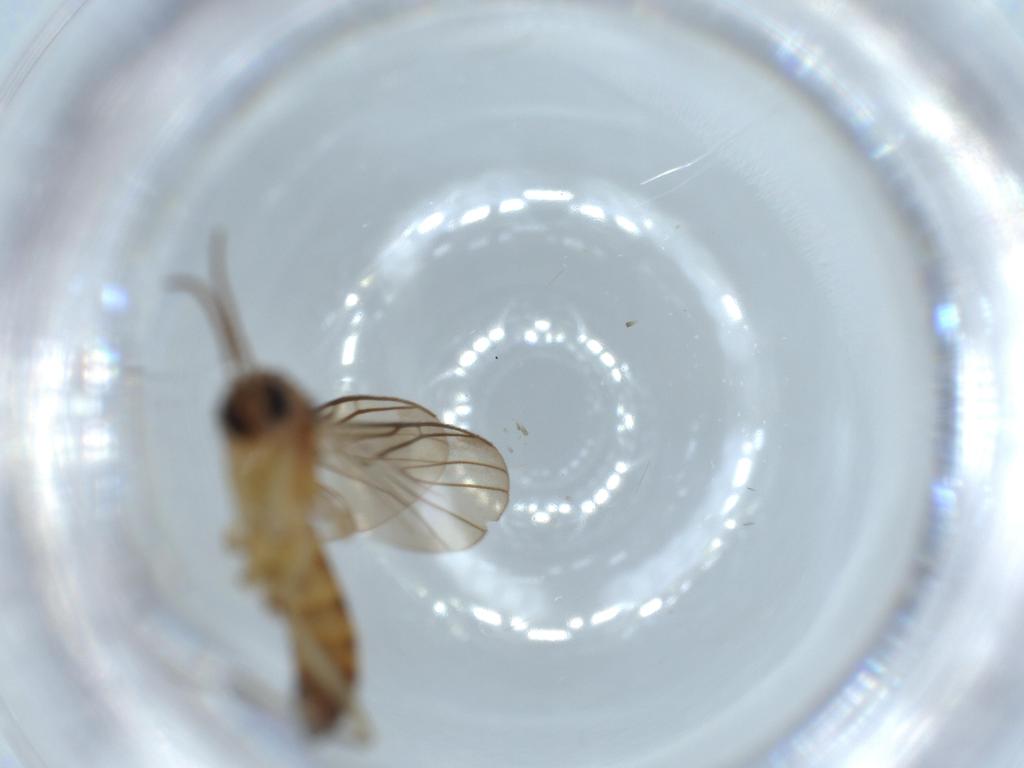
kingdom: Animalia
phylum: Arthropoda
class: Insecta
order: Diptera
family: Sciaridae
